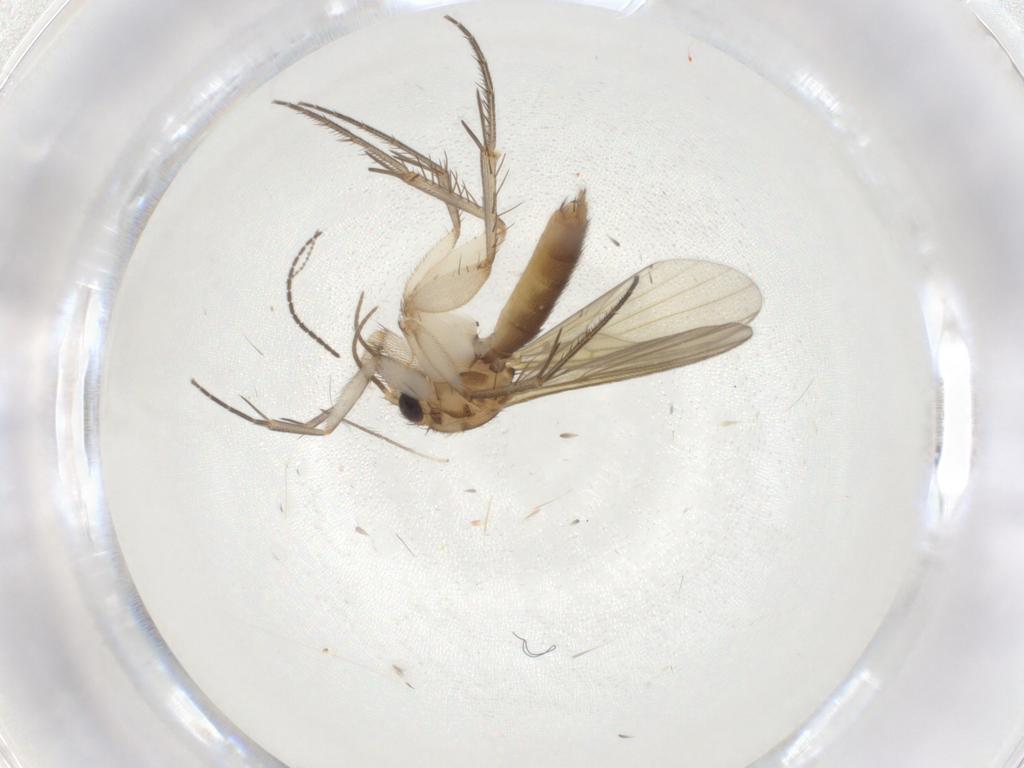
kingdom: Animalia
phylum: Arthropoda
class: Insecta
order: Diptera
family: Mycetophilidae
